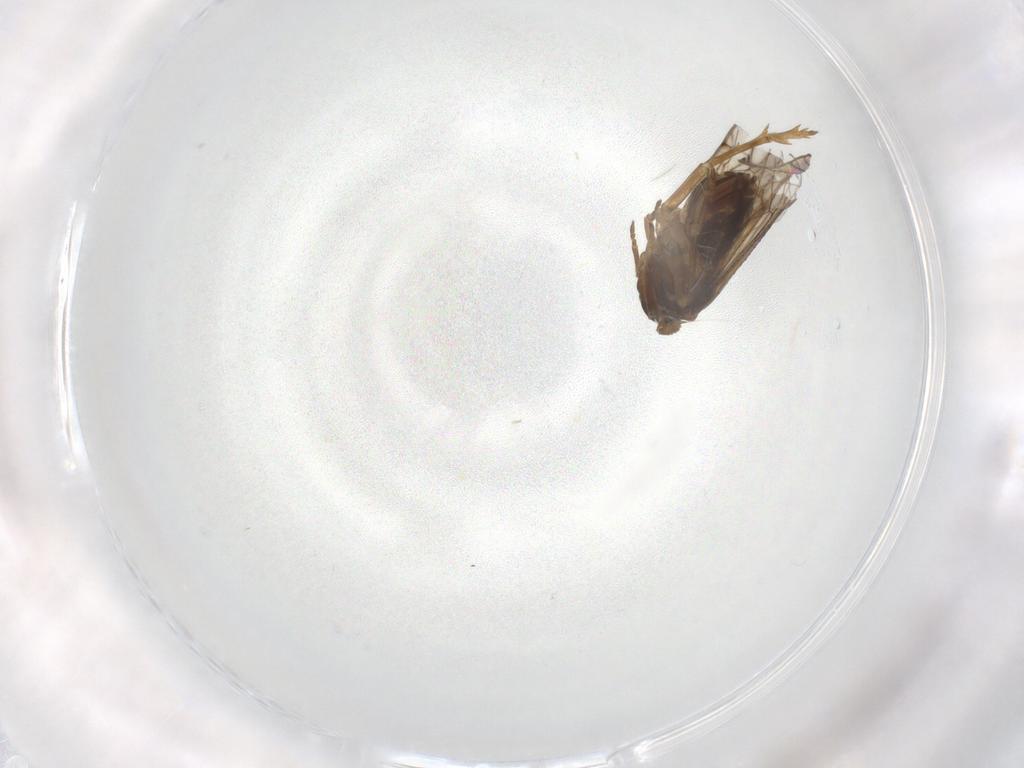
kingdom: Animalia
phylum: Arthropoda
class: Insecta
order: Hemiptera
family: Delphacidae
